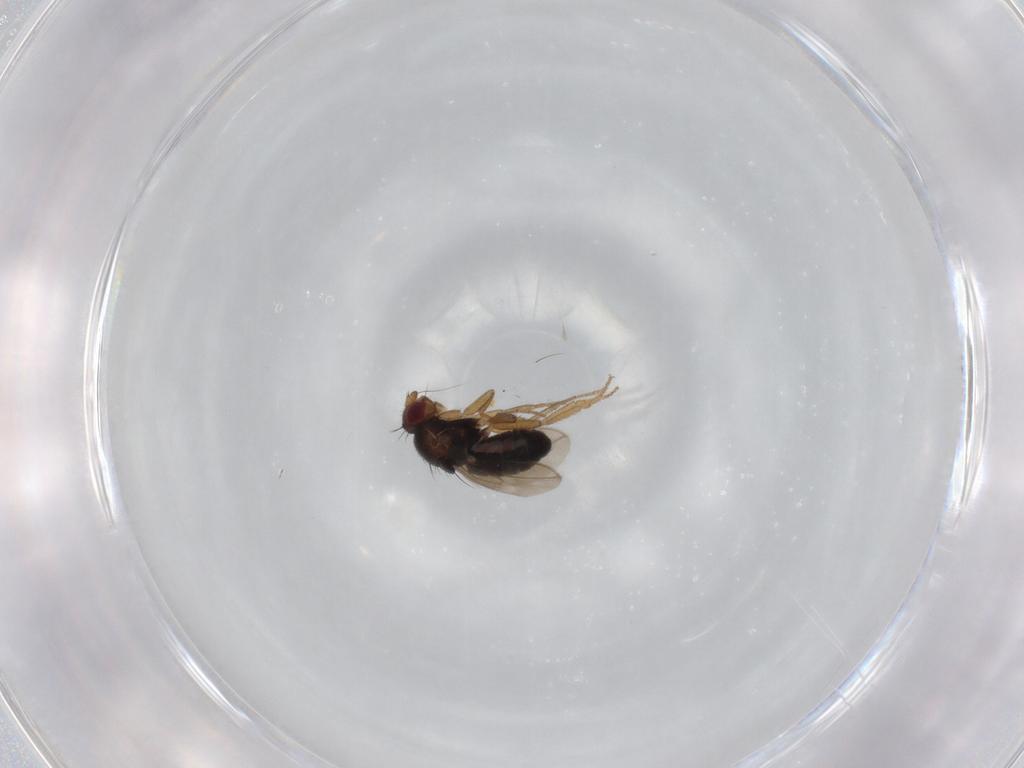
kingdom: Animalia
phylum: Arthropoda
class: Insecta
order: Diptera
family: Sphaeroceridae
